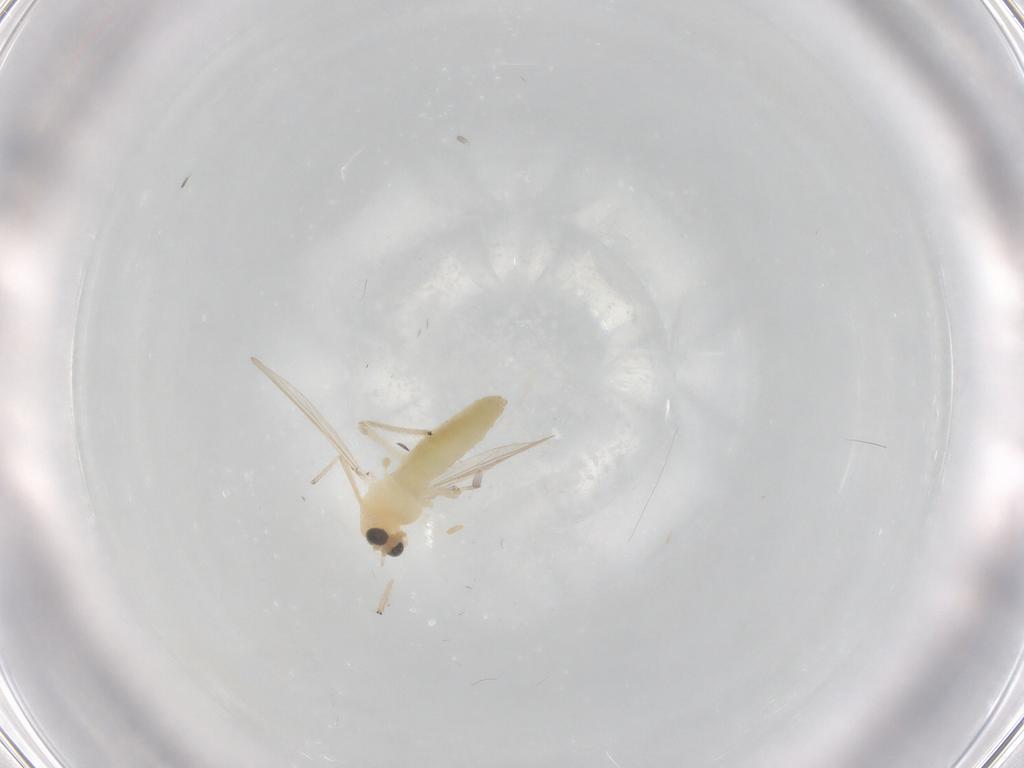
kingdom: Animalia
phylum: Arthropoda
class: Insecta
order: Diptera
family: Chironomidae
